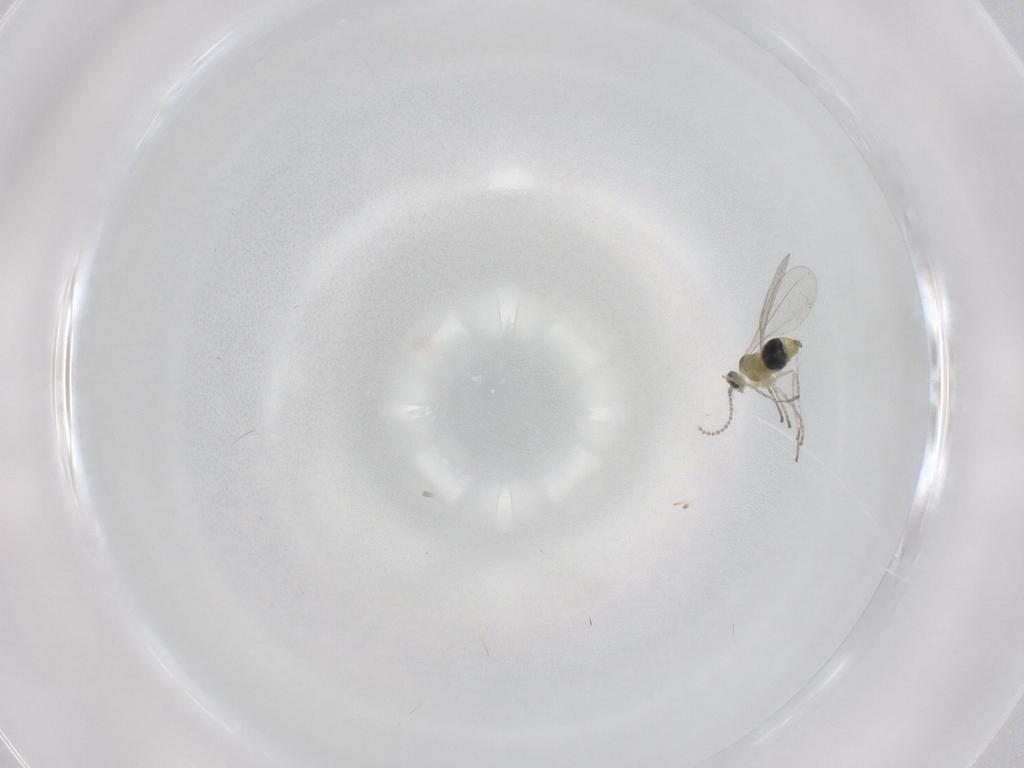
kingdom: Animalia
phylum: Arthropoda
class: Insecta
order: Diptera
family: Cecidomyiidae
